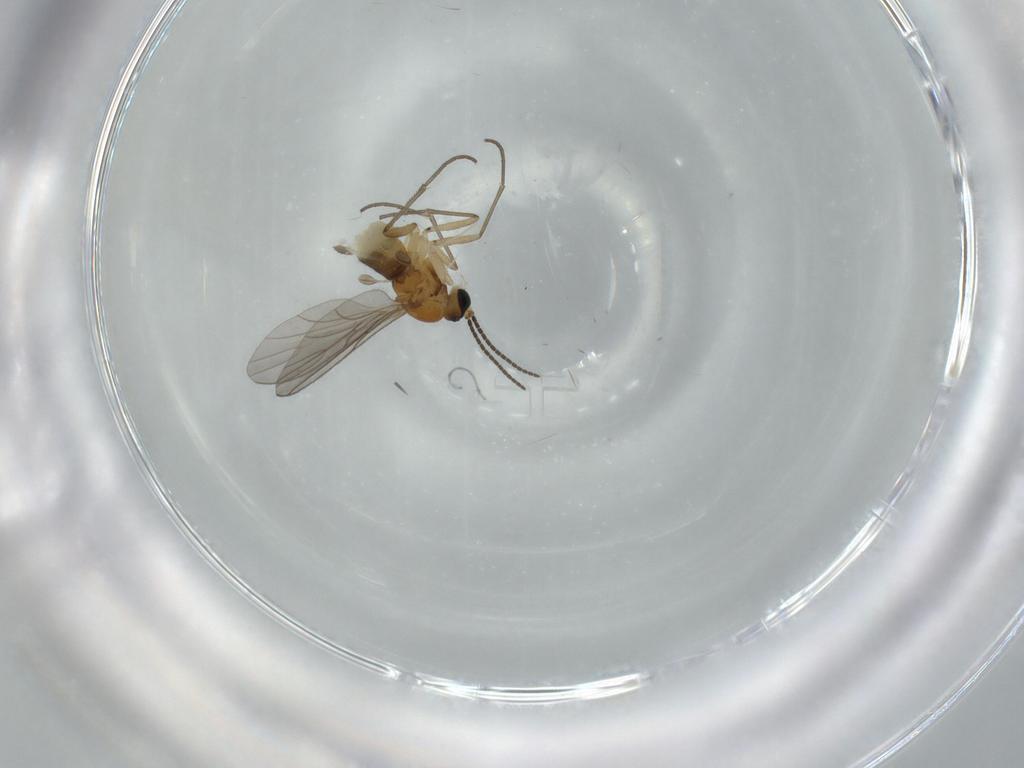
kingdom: Animalia
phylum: Arthropoda
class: Insecta
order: Diptera
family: Sciaridae
